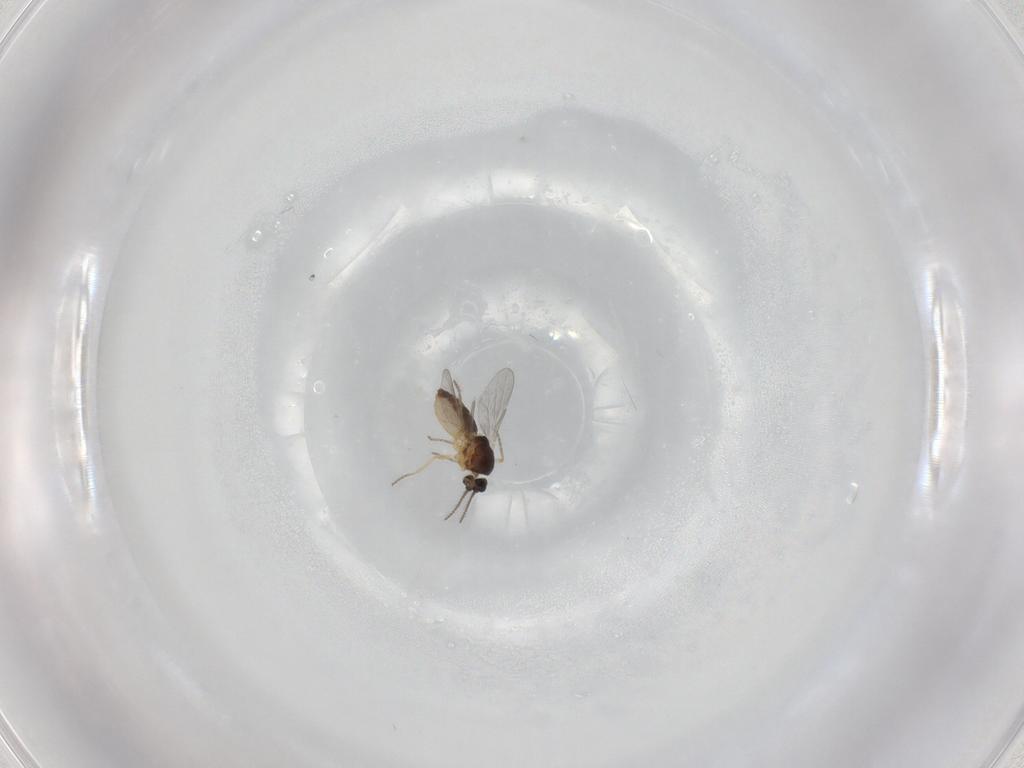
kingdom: Animalia
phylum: Arthropoda
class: Insecta
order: Diptera
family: Ceratopogonidae
